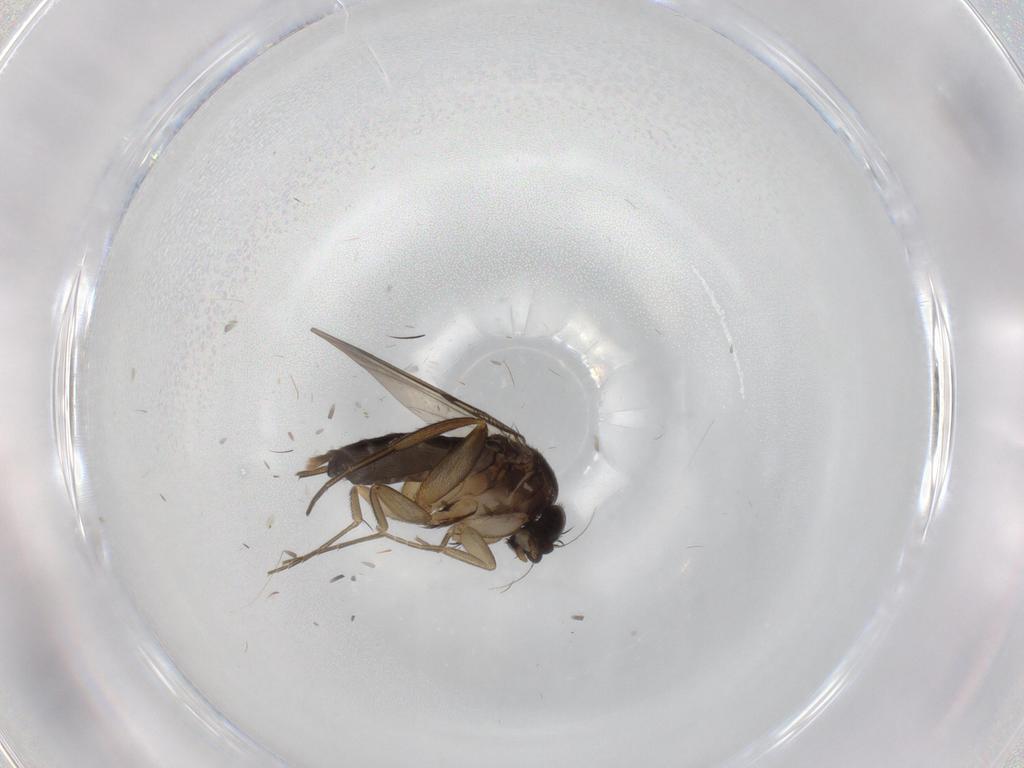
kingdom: Animalia
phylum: Arthropoda
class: Insecta
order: Diptera
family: Phoridae
